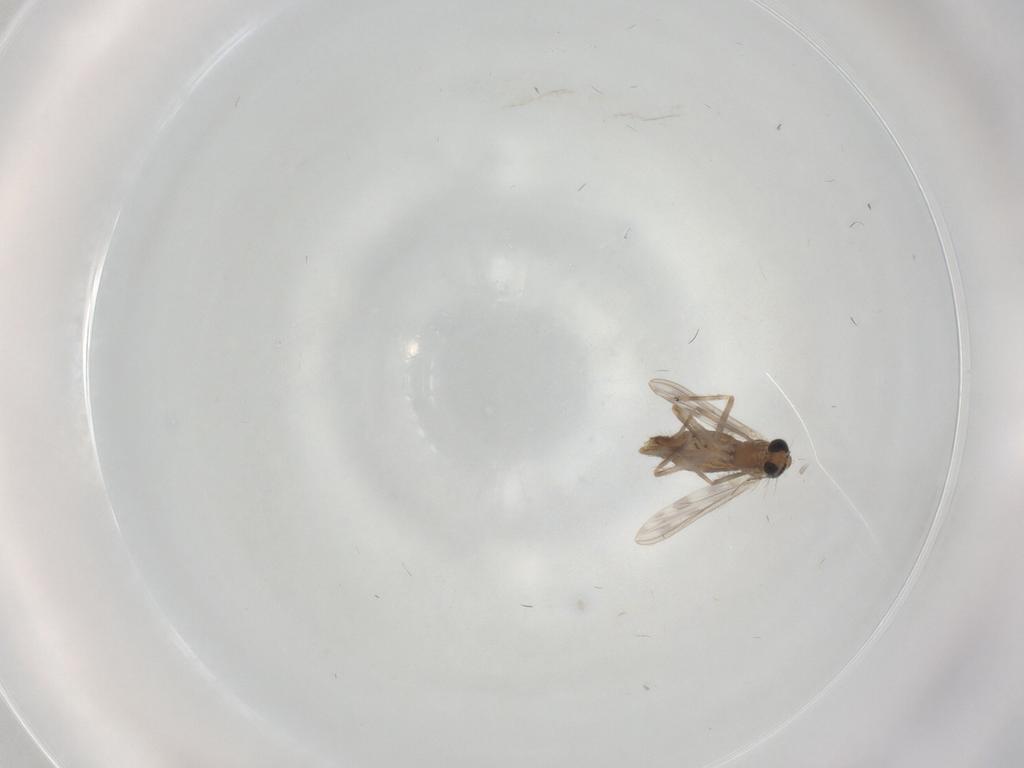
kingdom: Animalia
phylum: Arthropoda
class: Insecta
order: Diptera
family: Chironomidae
